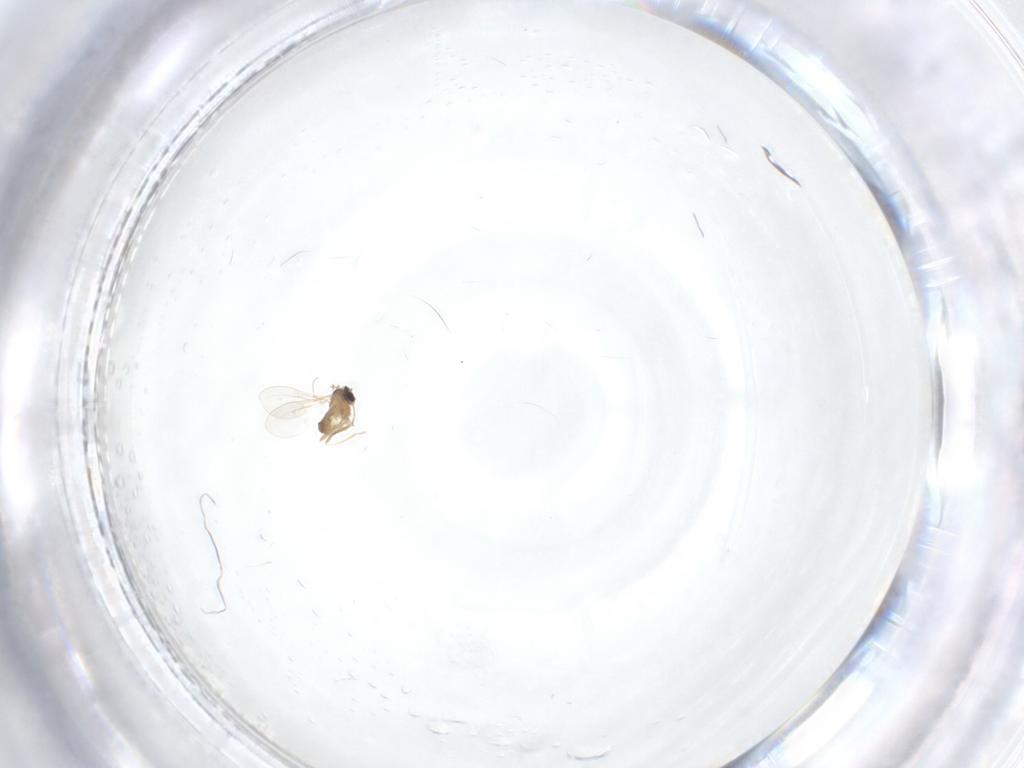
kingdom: Animalia
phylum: Arthropoda
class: Insecta
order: Diptera
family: Cecidomyiidae
